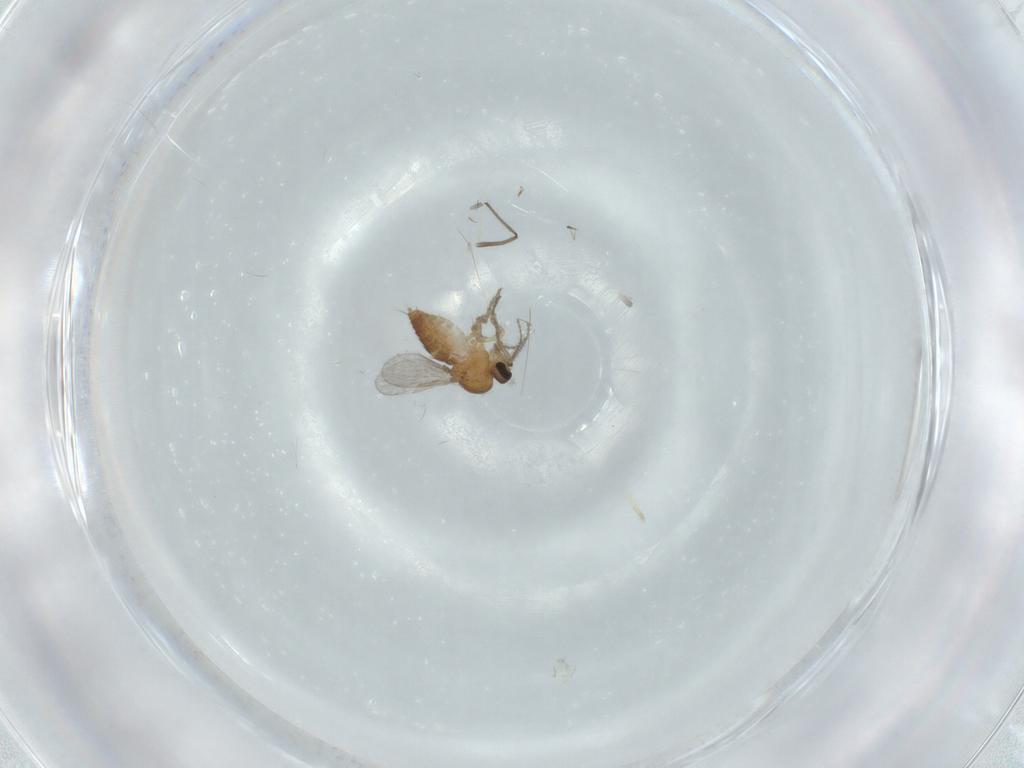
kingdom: Animalia
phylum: Arthropoda
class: Insecta
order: Diptera
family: Ceratopogonidae
